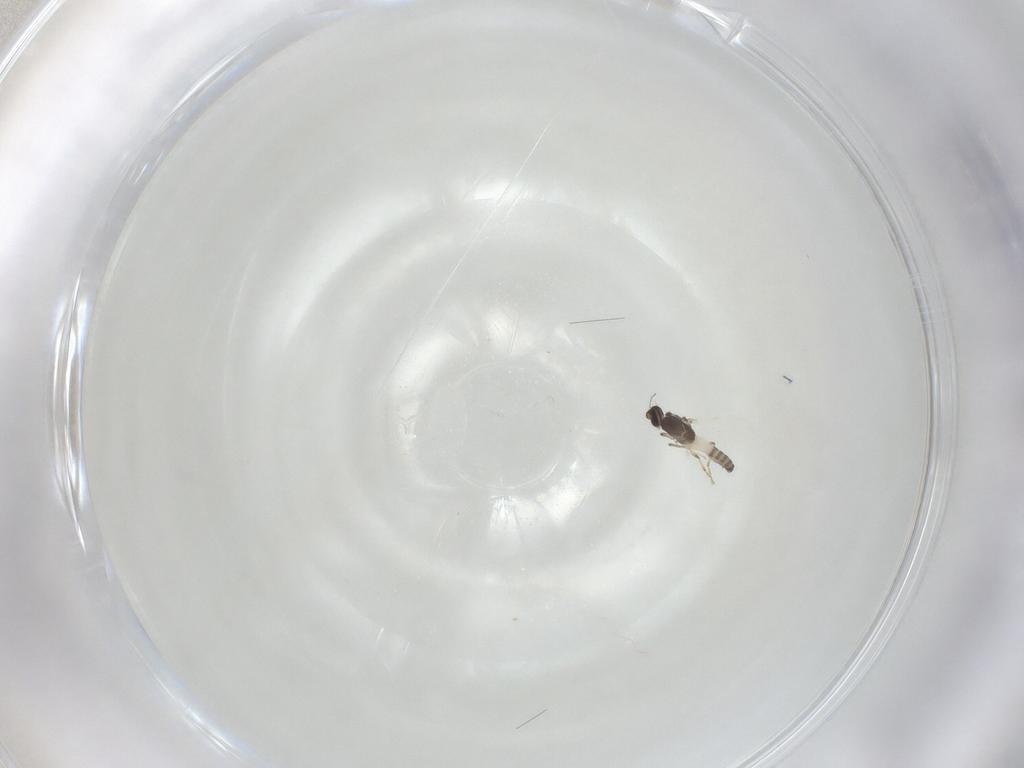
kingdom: Animalia
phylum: Arthropoda
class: Insecta
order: Diptera
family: Ceratopogonidae
